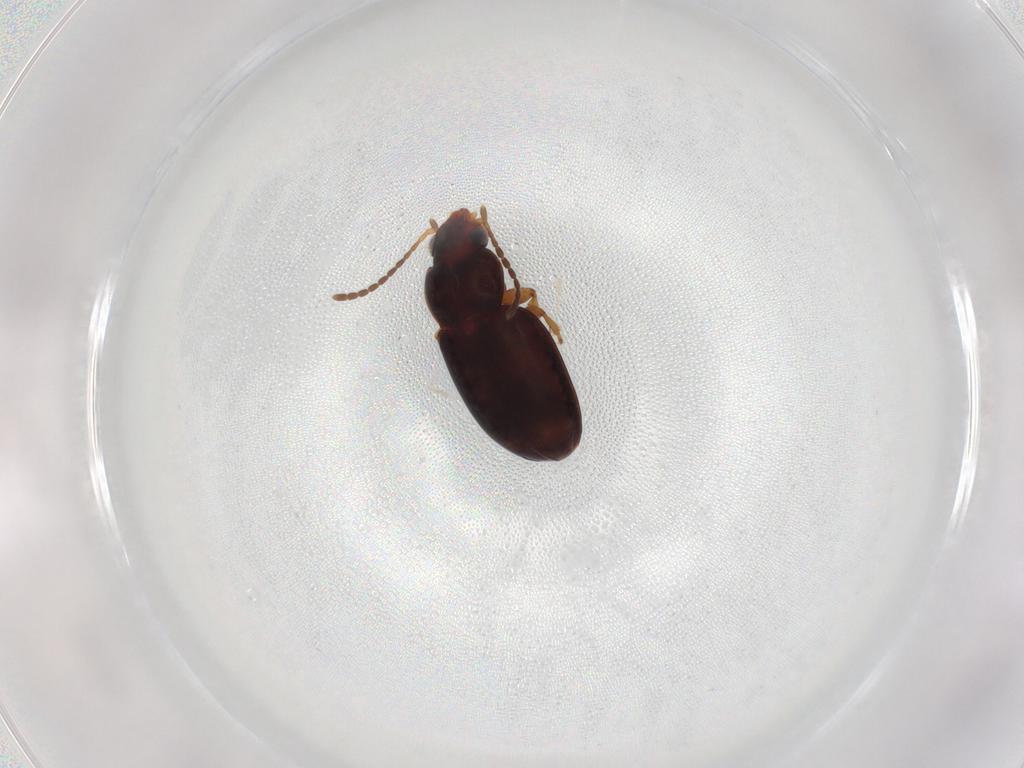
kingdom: Animalia
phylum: Arthropoda
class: Insecta
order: Coleoptera
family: Carabidae
